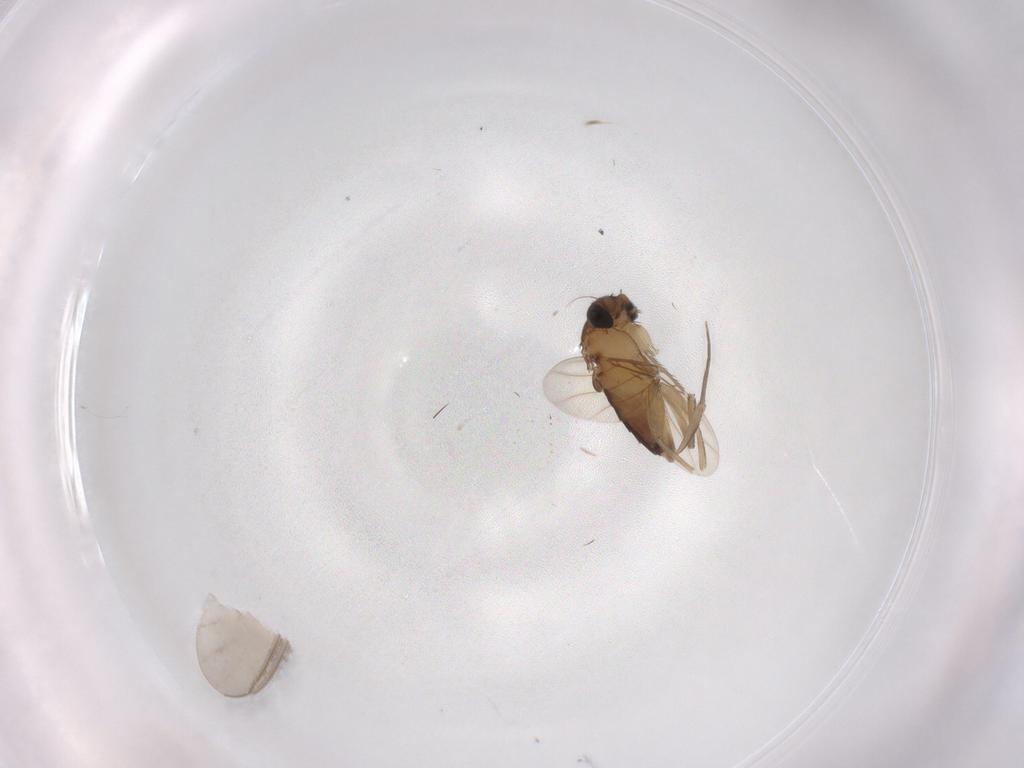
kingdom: Animalia
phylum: Arthropoda
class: Insecta
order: Diptera
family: Phoridae
